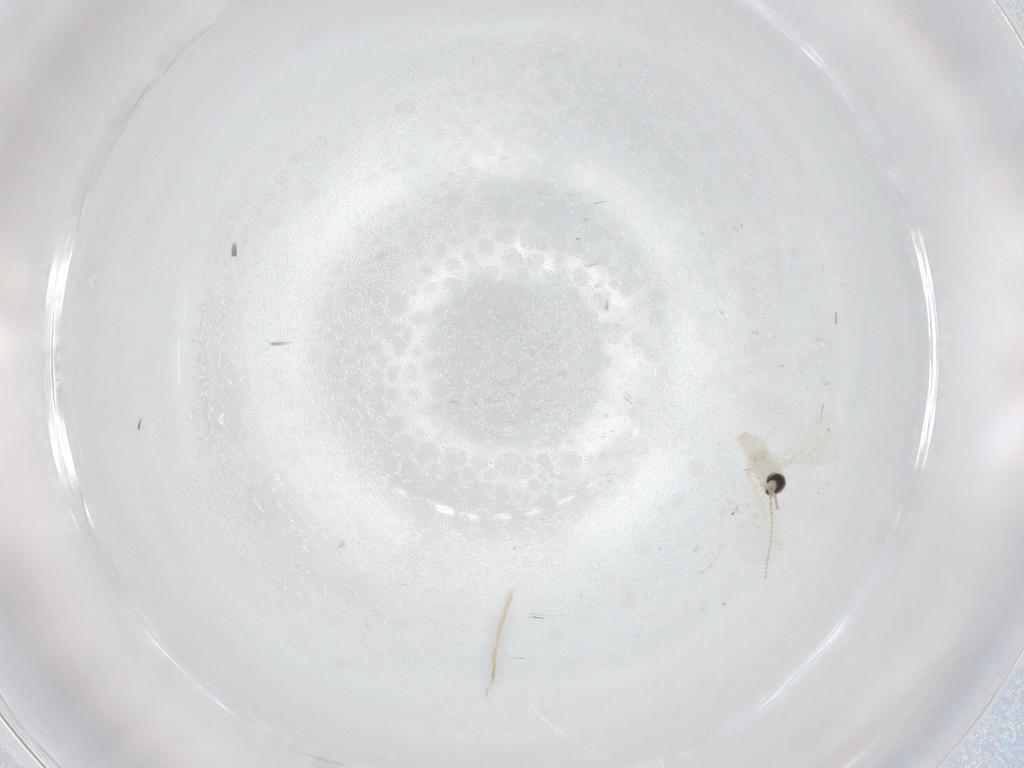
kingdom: Animalia
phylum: Arthropoda
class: Insecta
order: Diptera
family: Cecidomyiidae
